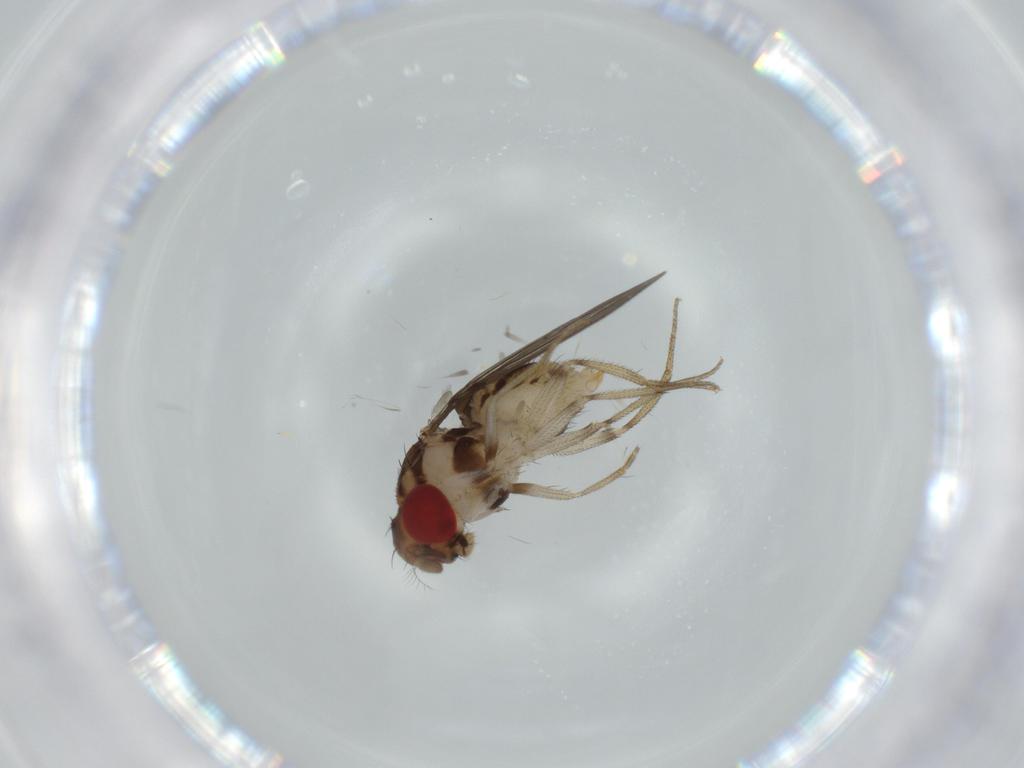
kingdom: Animalia
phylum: Arthropoda
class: Insecta
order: Diptera
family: Drosophilidae
